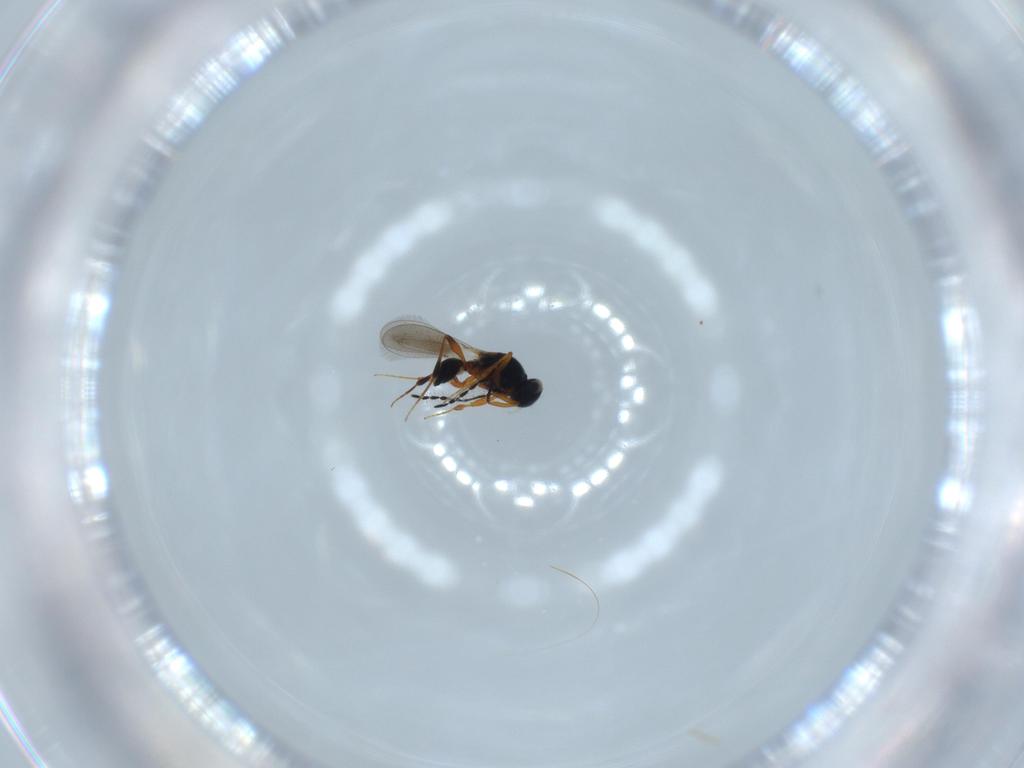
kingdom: Animalia
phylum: Arthropoda
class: Insecta
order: Hymenoptera
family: Platygastridae
